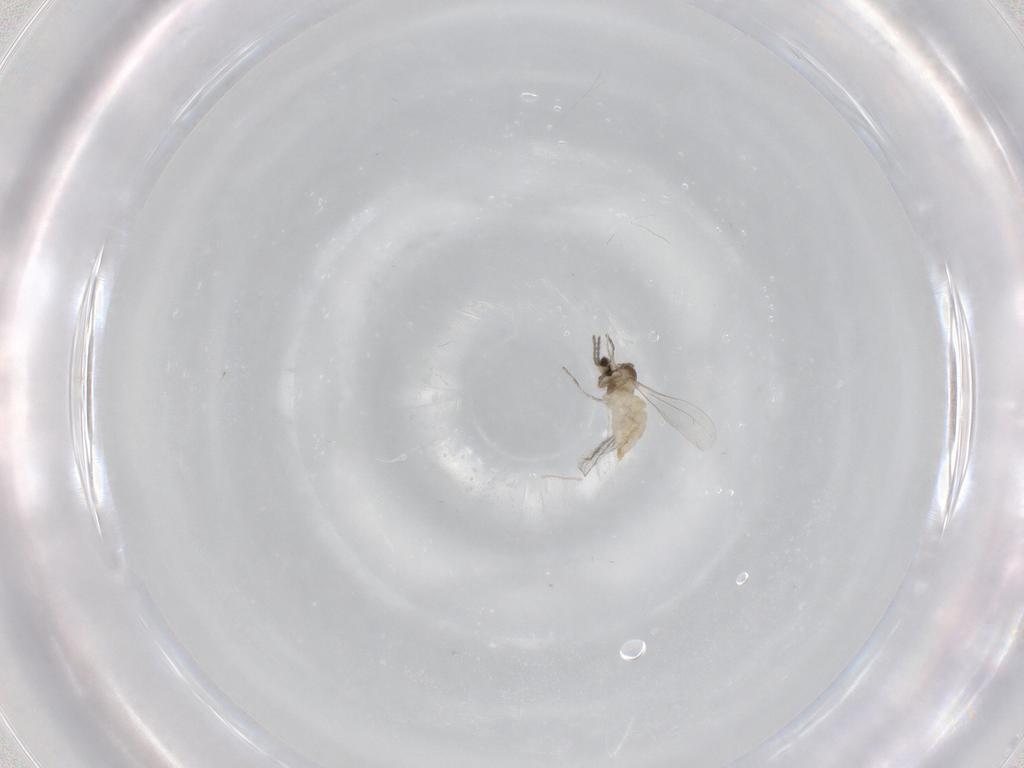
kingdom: Animalia
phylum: Arthropoda
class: Insecta
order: Diptera
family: Cecidomyiidae
